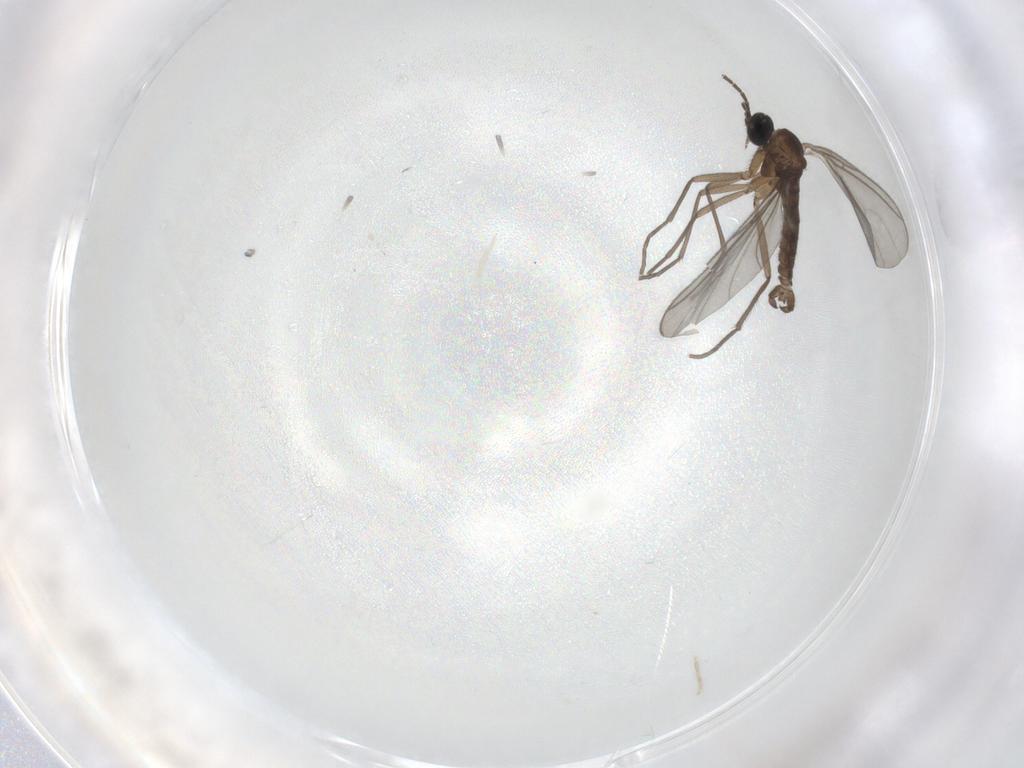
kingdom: Animalia
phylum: Arthropoda
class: Insecta
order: Diptera
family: Sciaridae
